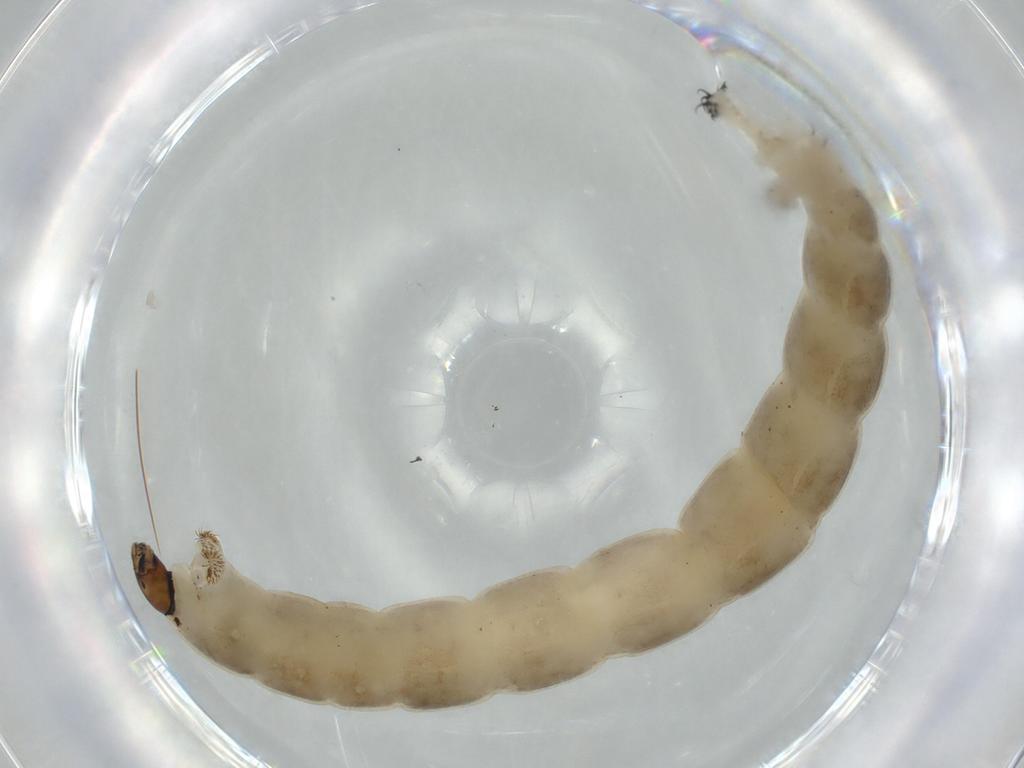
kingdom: Animalia
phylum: Arthropoda
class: Insecta
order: Diptera
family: Chironomidae
